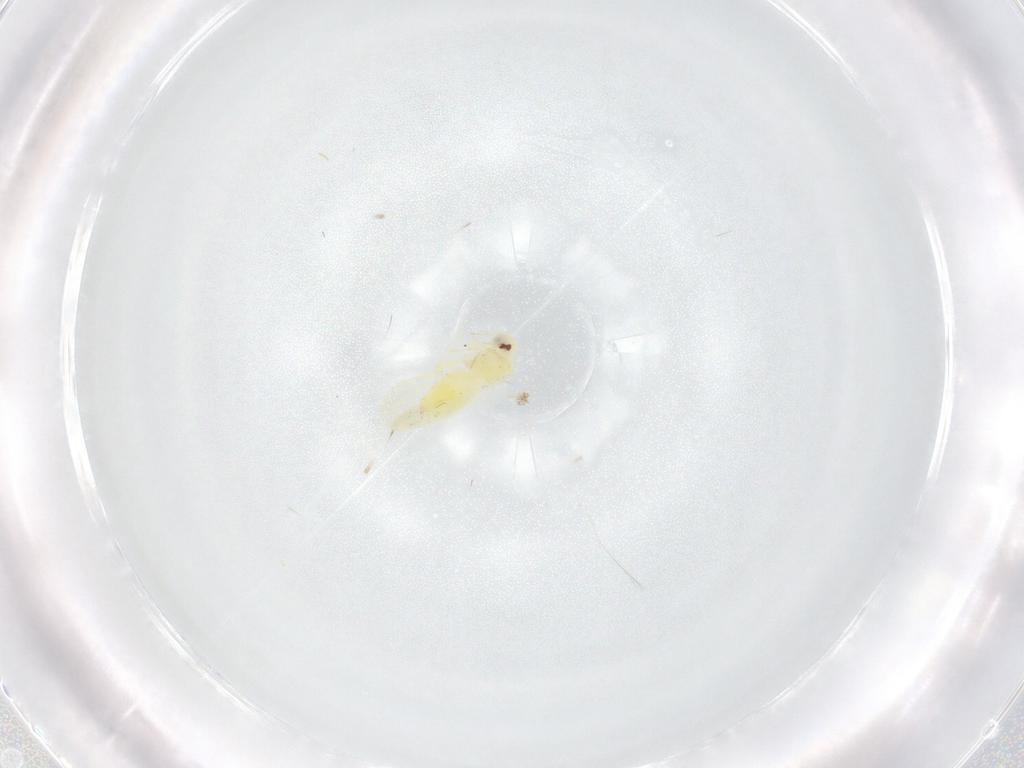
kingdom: Animalia
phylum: Arthropoda
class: Insecta
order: Hemiptera
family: Aleyrodidae
